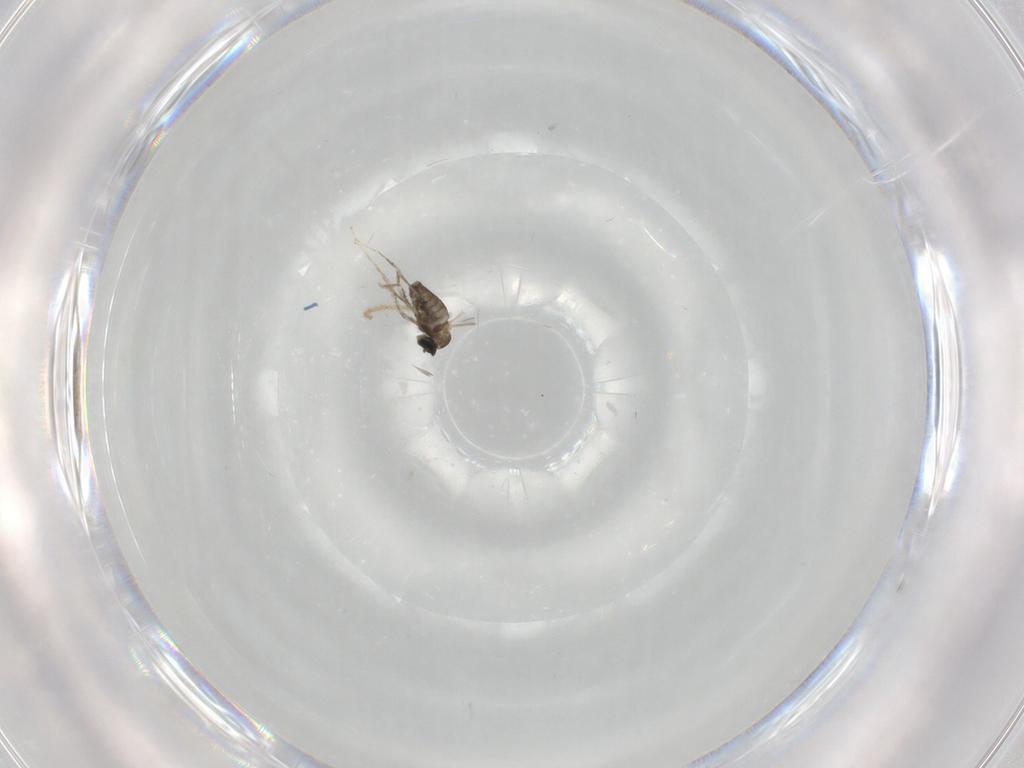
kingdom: Animalia
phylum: Arthropoda
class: Insecta
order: Diptera
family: Cecidomyiidae
